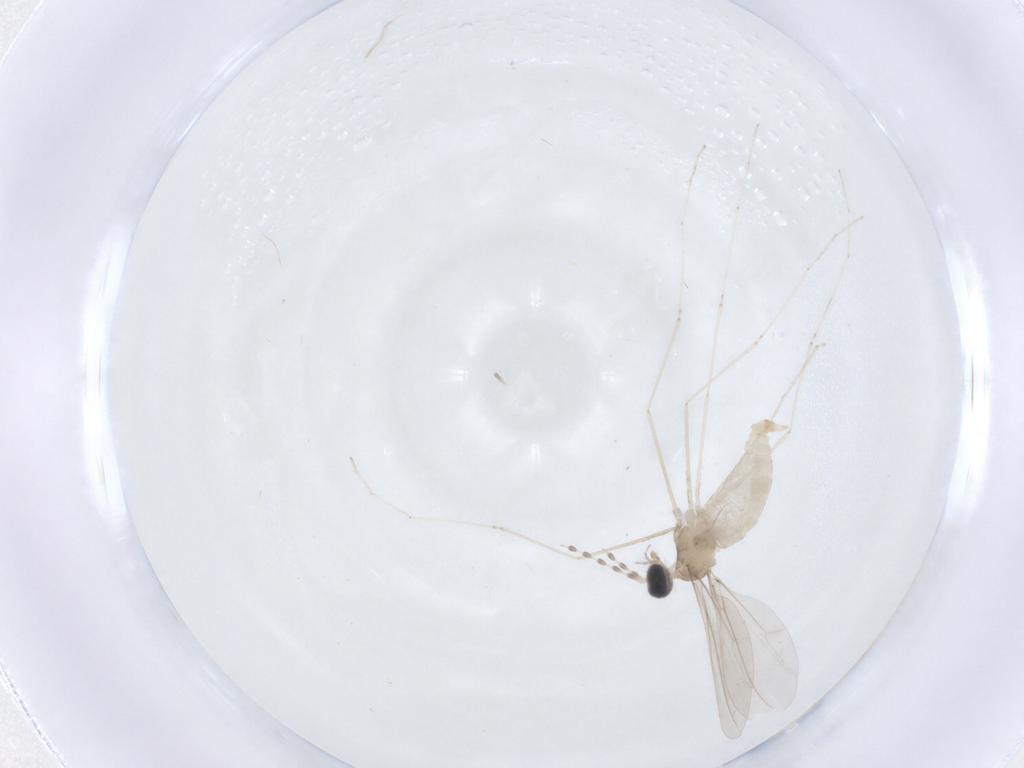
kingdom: Animalia
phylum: Arthropoda
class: Insecta
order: Diptera
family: Cecidomyiidae
